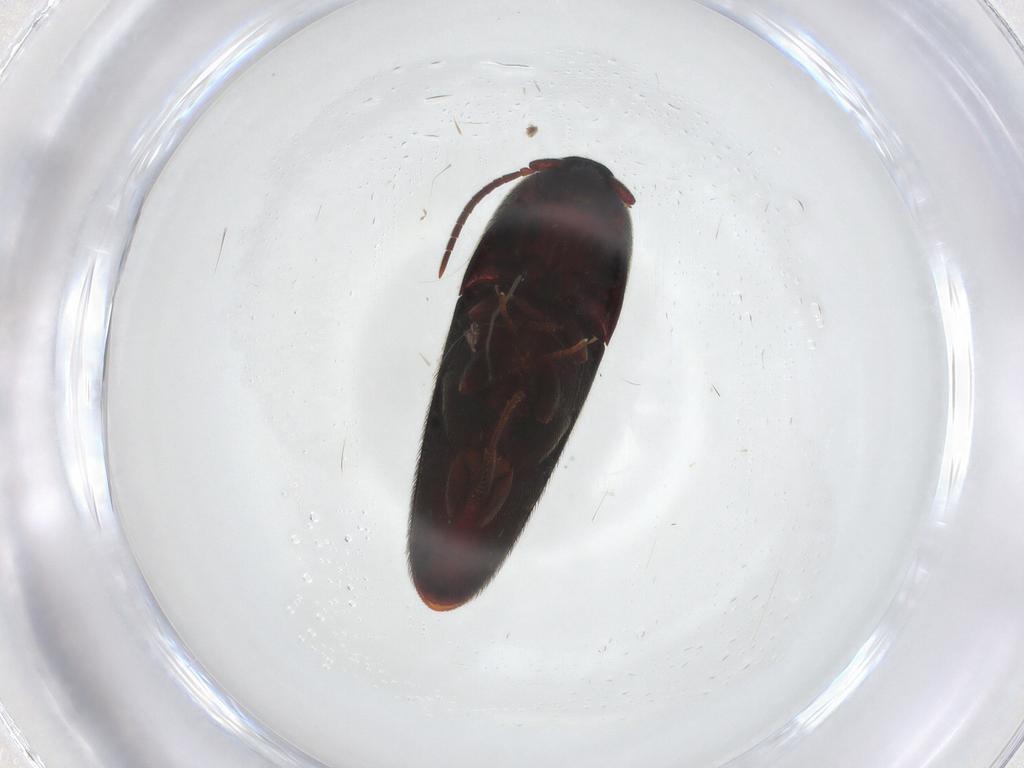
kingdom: Animalia
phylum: Arthropoda
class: Insecta
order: Coleoptera
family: Eucnemidae
